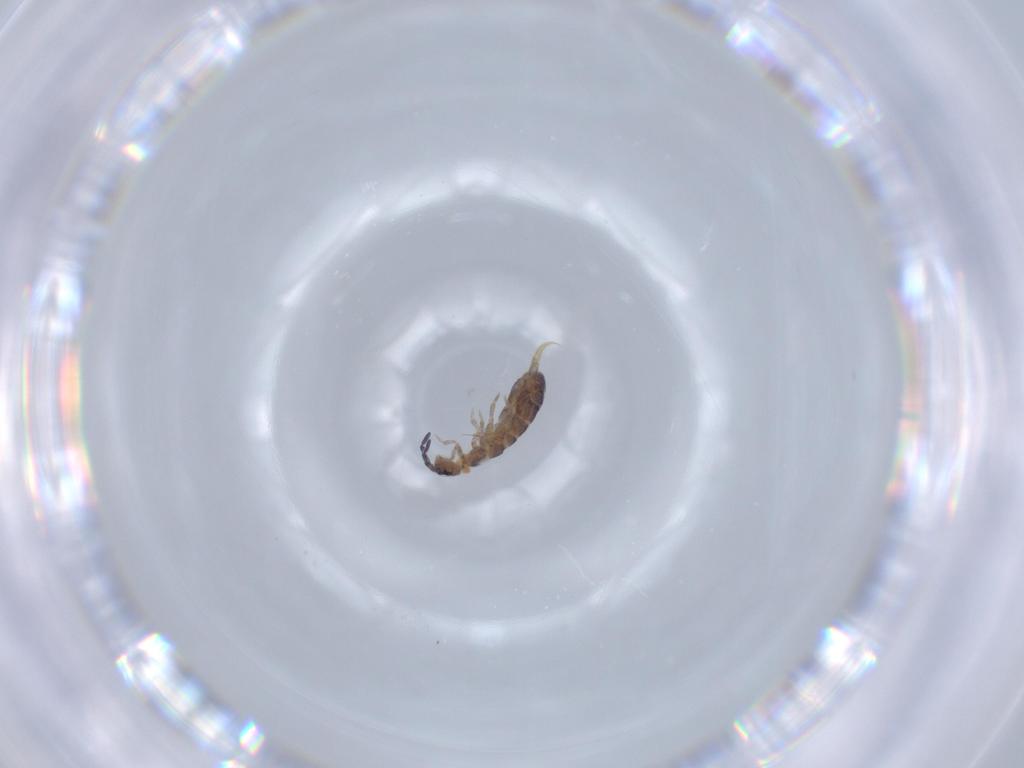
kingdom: Animalia
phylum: Arthropoda
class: Collembola
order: Entomobryomorpha
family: Isotomidae
